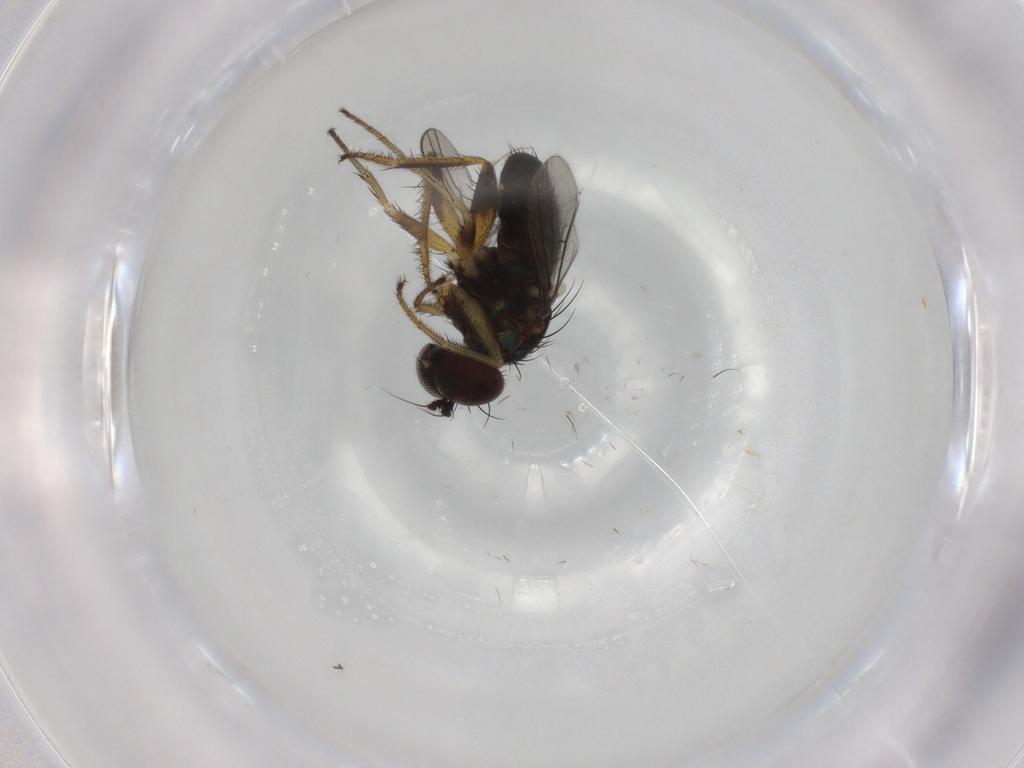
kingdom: Animalia
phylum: Arthropoda
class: Insecta
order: Diptera
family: Dolichopodidae
